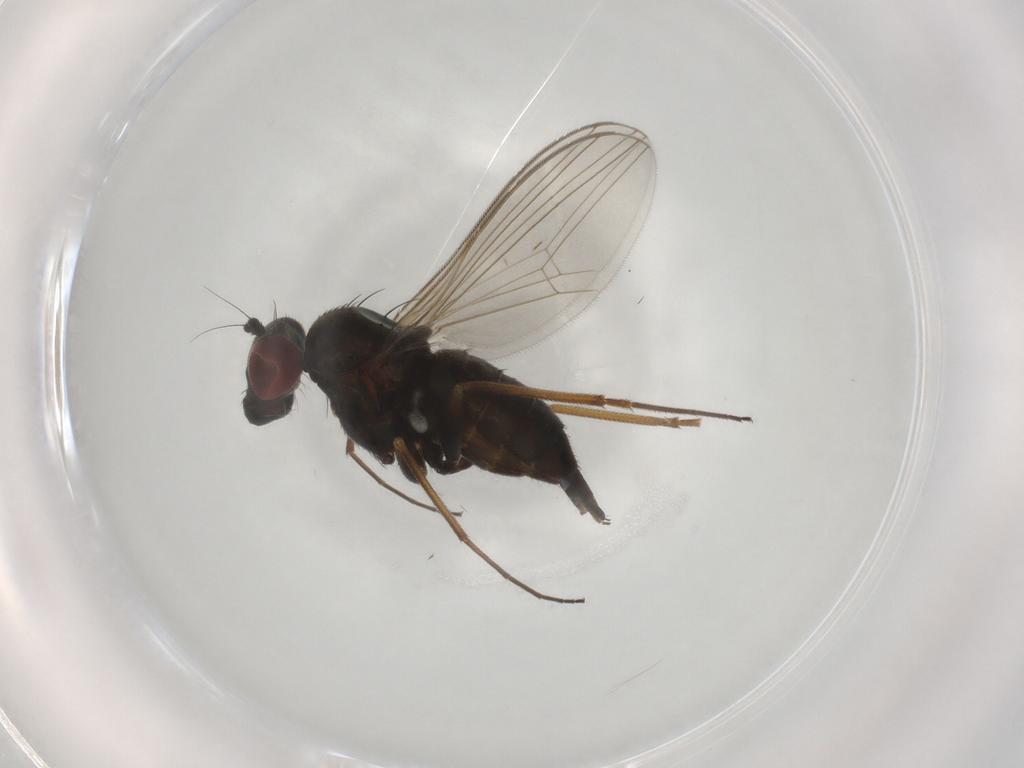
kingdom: Animalia
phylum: Arthropoda
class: Insecta
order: Diptera
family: Dolichopodidae
